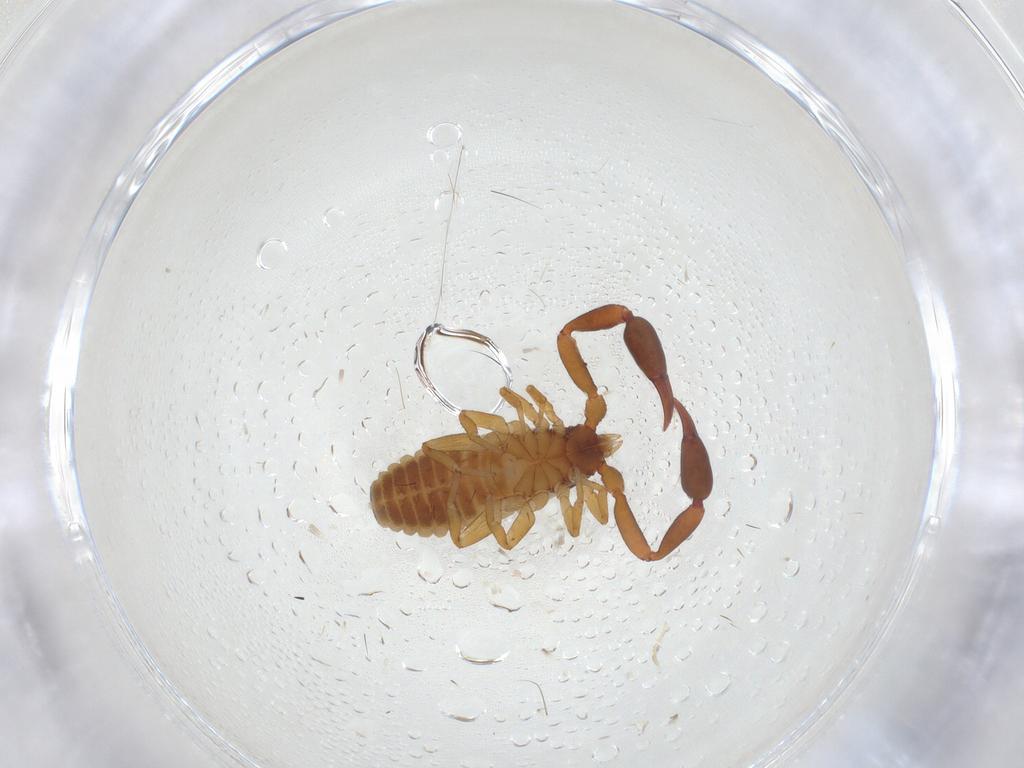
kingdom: Animalia
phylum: Arthropoda
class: Arachnida
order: Pseudoscorpiones
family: Withiidae
